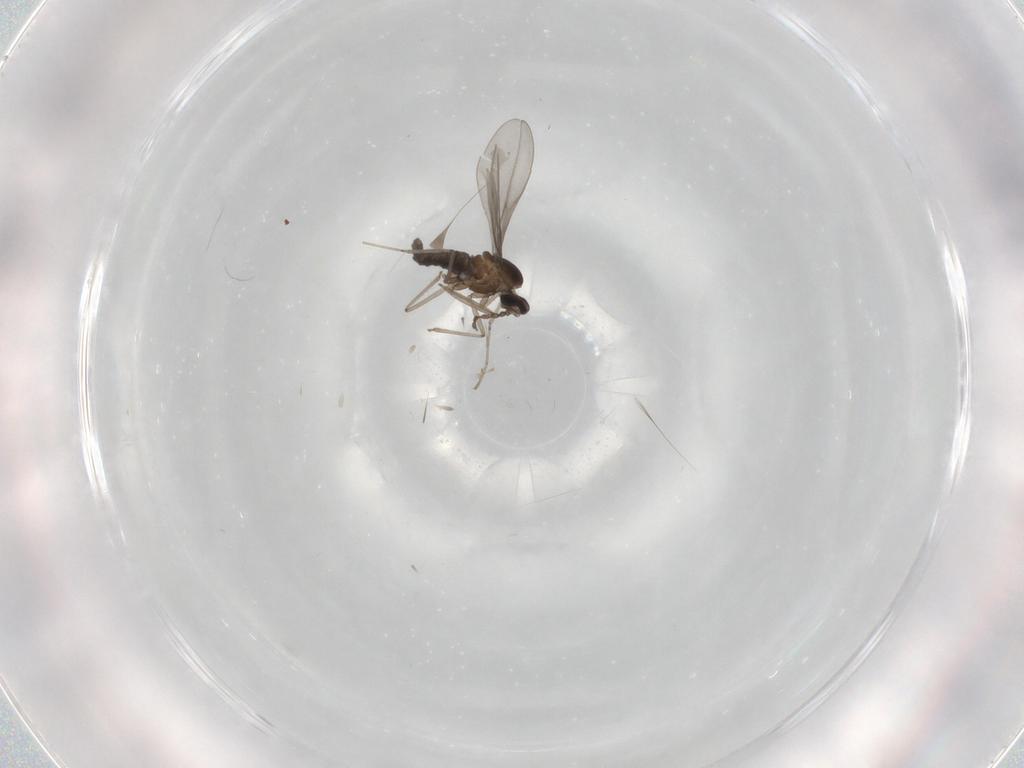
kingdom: Animalia
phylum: Arthropoda
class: Insecta
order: Diptera
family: Cecidomyiidae
